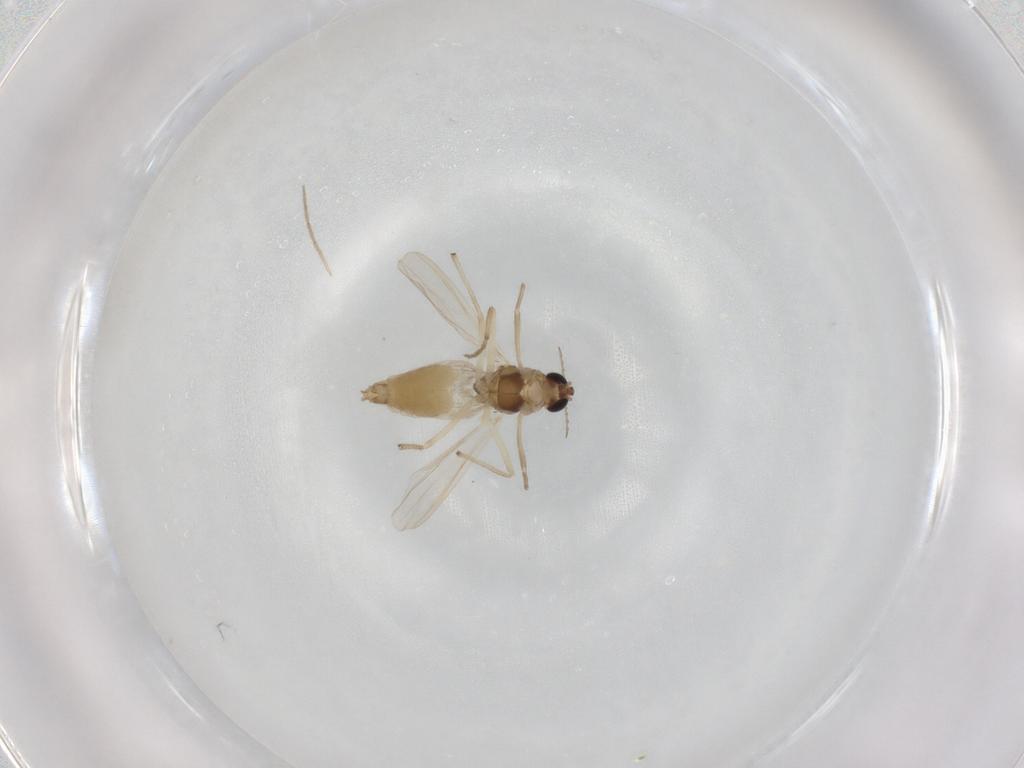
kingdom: Animalia
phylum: Arthropoda
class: Insecta
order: Diptera
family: Chironomidae
